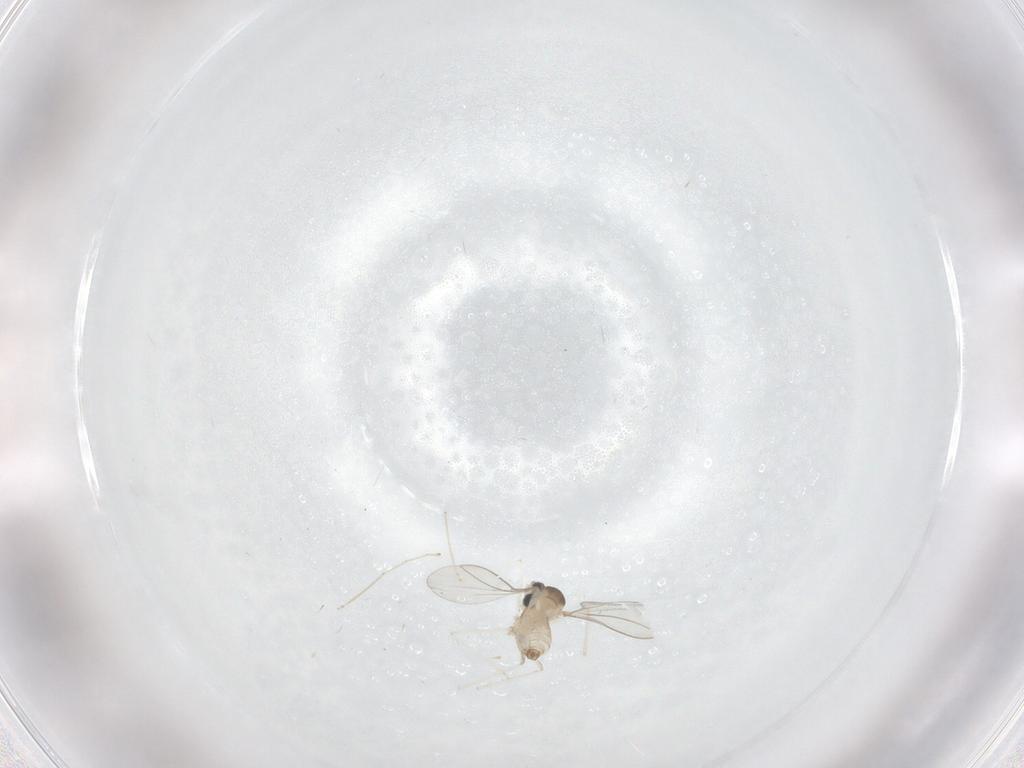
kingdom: Animalia
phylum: Arthropoda
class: Insecta
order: Diptera
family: Cecidomyiidae
